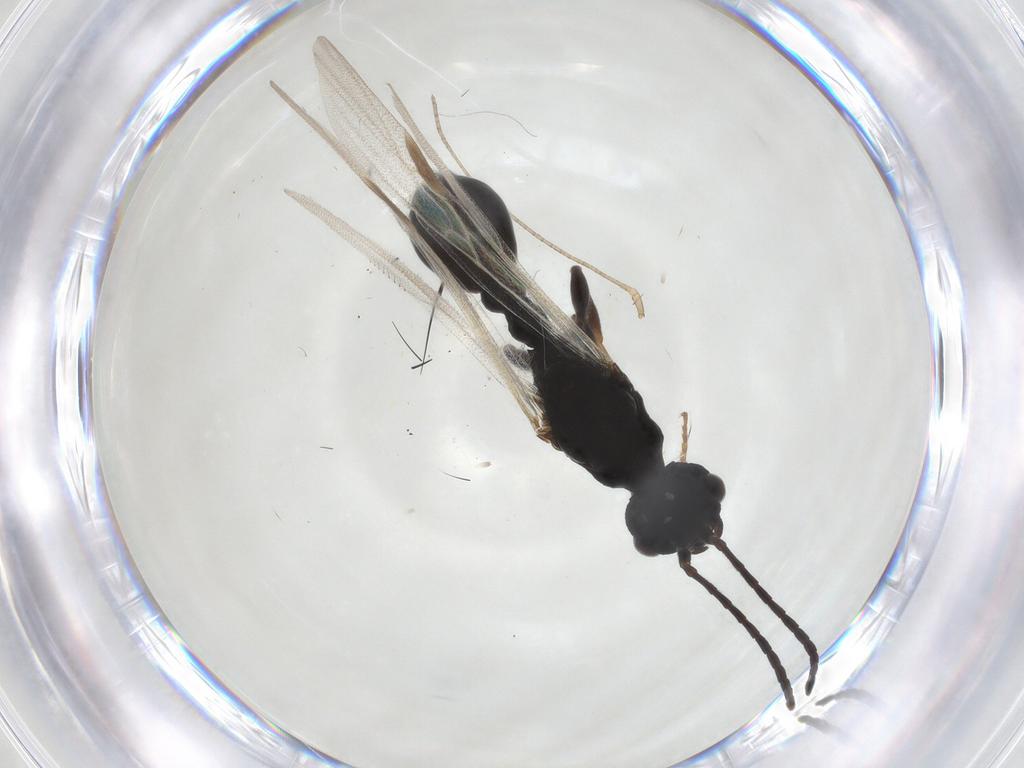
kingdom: Animalia
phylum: Arthropoda
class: Insecta
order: Hymenoptera
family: Formicidae
